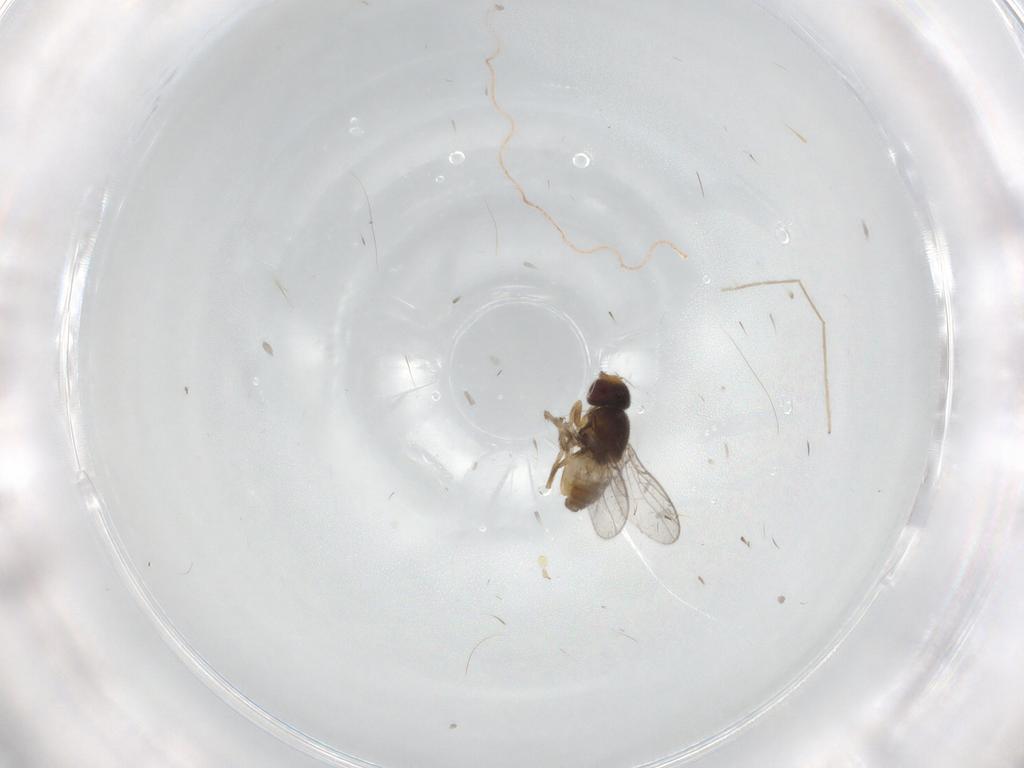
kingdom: Animalia
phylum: Arthropoda
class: Insecta
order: Diptera
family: Chloropidae
